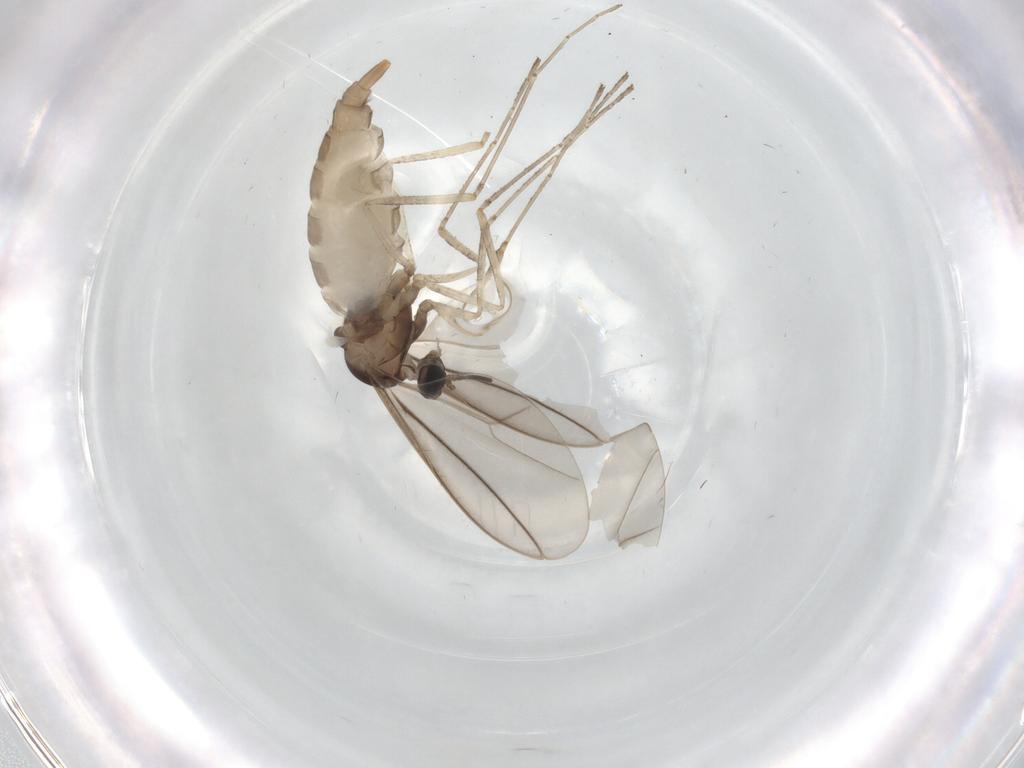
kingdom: Animalia
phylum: Arthropoda
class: Insecta
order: Diptera
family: Cecidomyiidae
